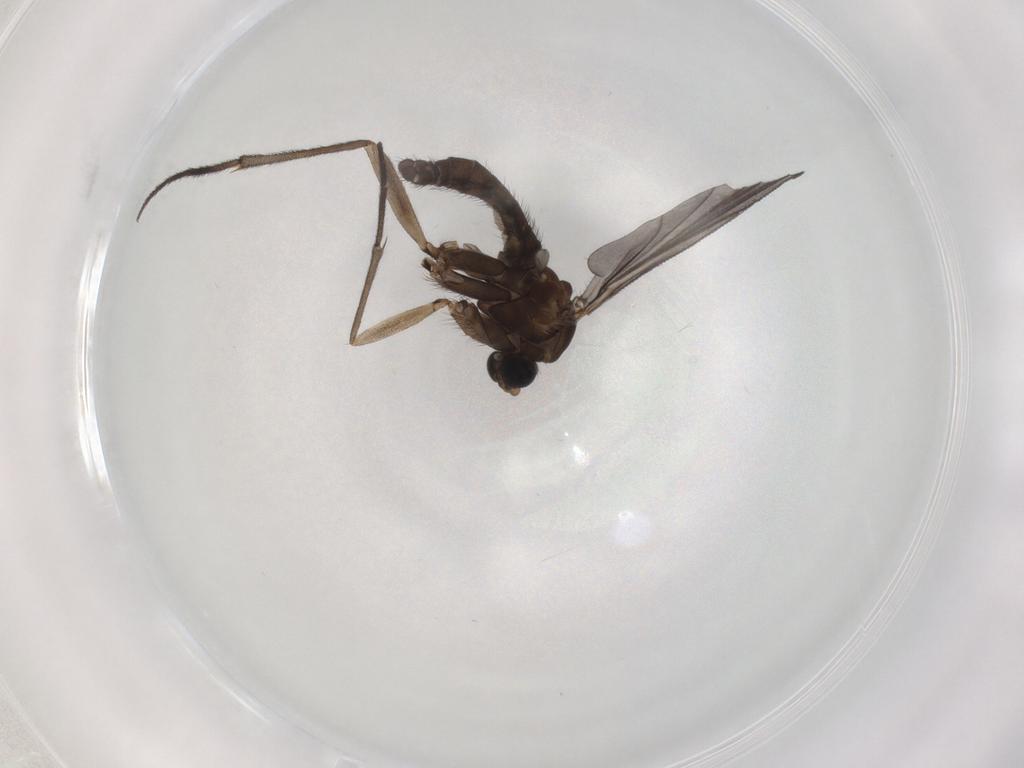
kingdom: Animalia
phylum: Arthropoda
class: Insecta
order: Diptera
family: Sciaridae
